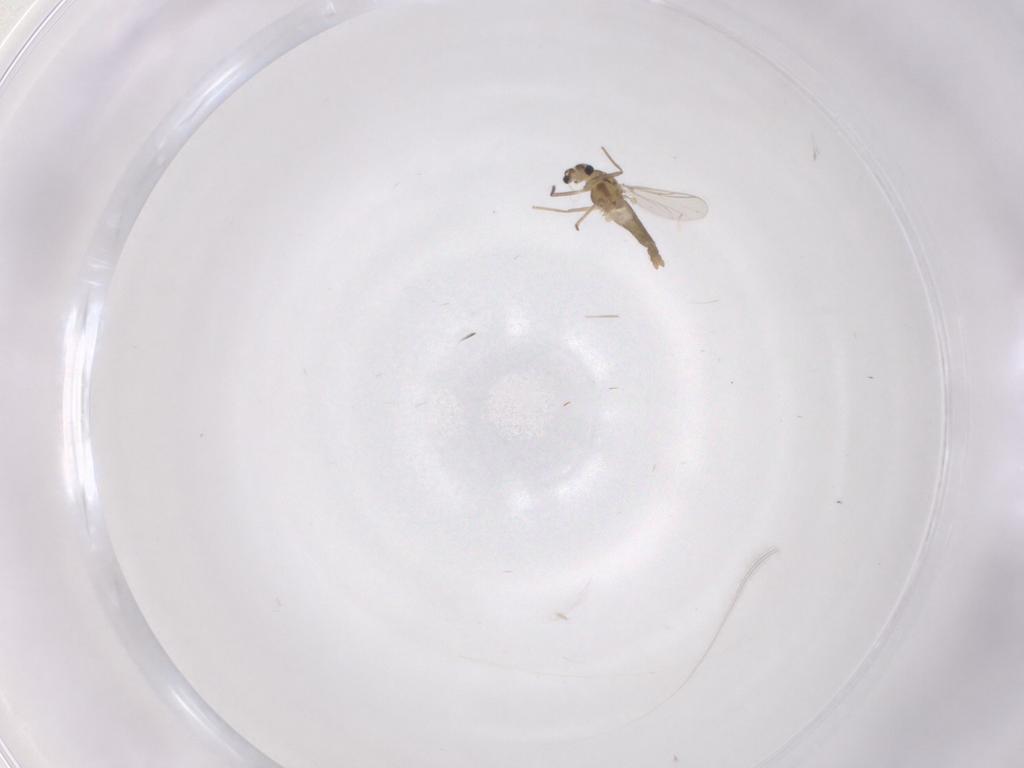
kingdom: Animalia
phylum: Arthropoda
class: Insecta
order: Diptera
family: Chironomidae
